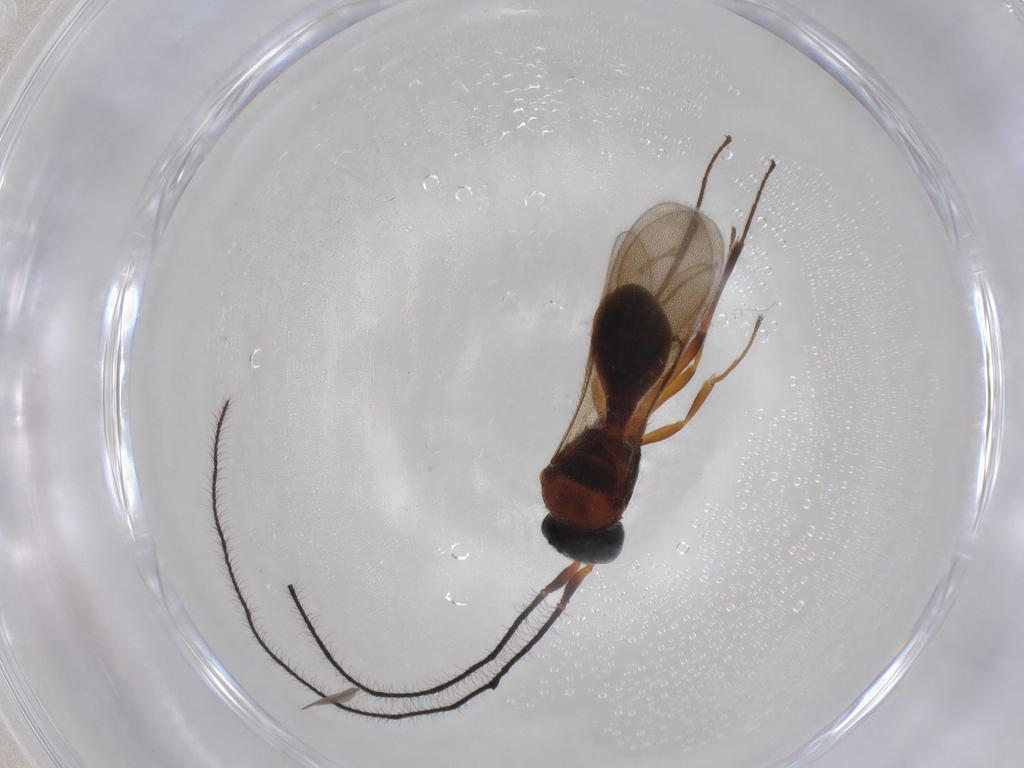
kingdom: Animalia
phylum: Arthropoda
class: Insecta
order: Hymenoptera
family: Scelionidae
